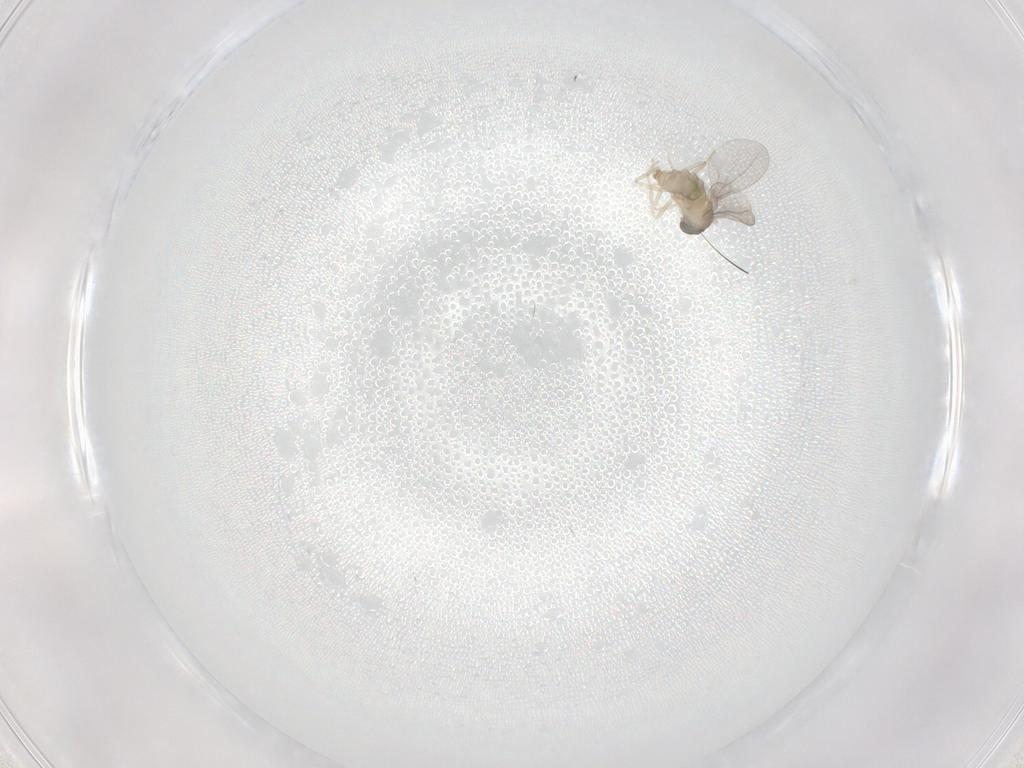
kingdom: Animalia
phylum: Arthropoda
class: Insecta
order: Diptera
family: Cecidomyiidae
